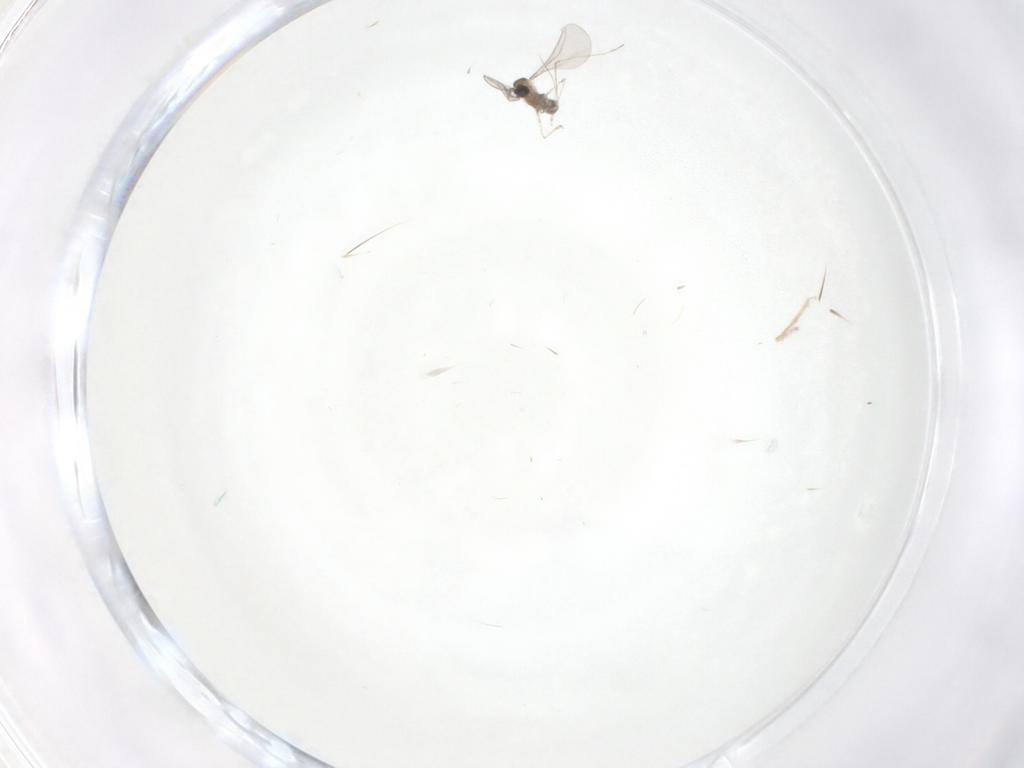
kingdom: Animalia
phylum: Arthropoda
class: Insecta
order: Diptera
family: Cecidomyiidae
